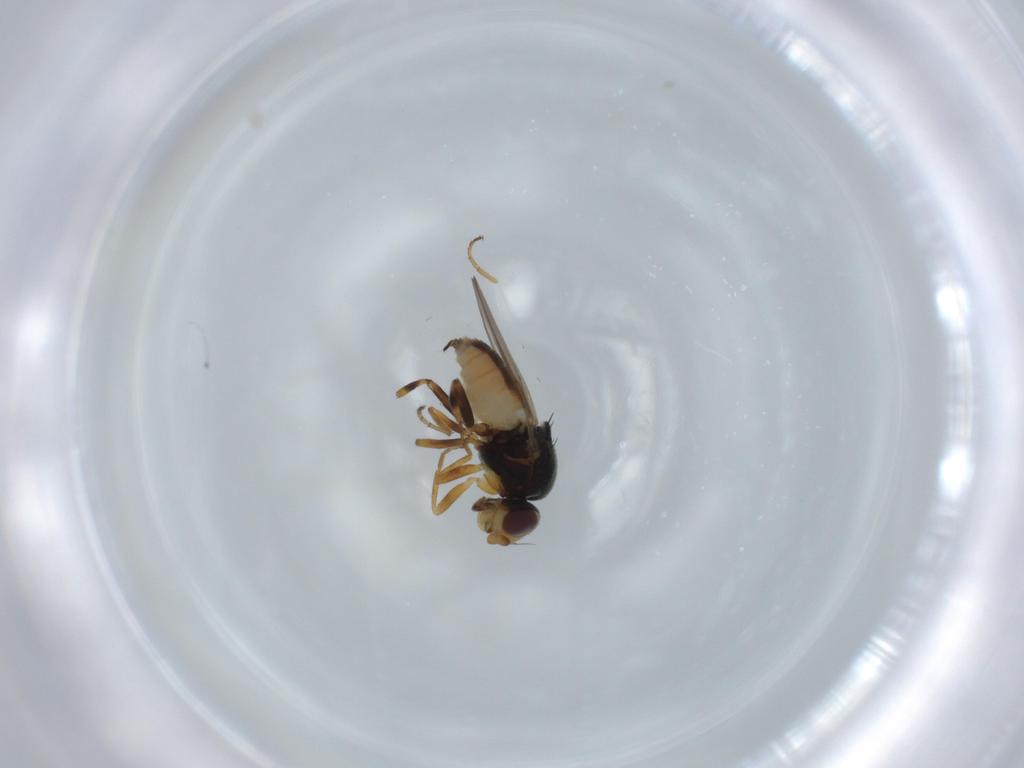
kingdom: Animalia
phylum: Arthropoda
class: Insecta
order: Diptera
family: Chloropidae
